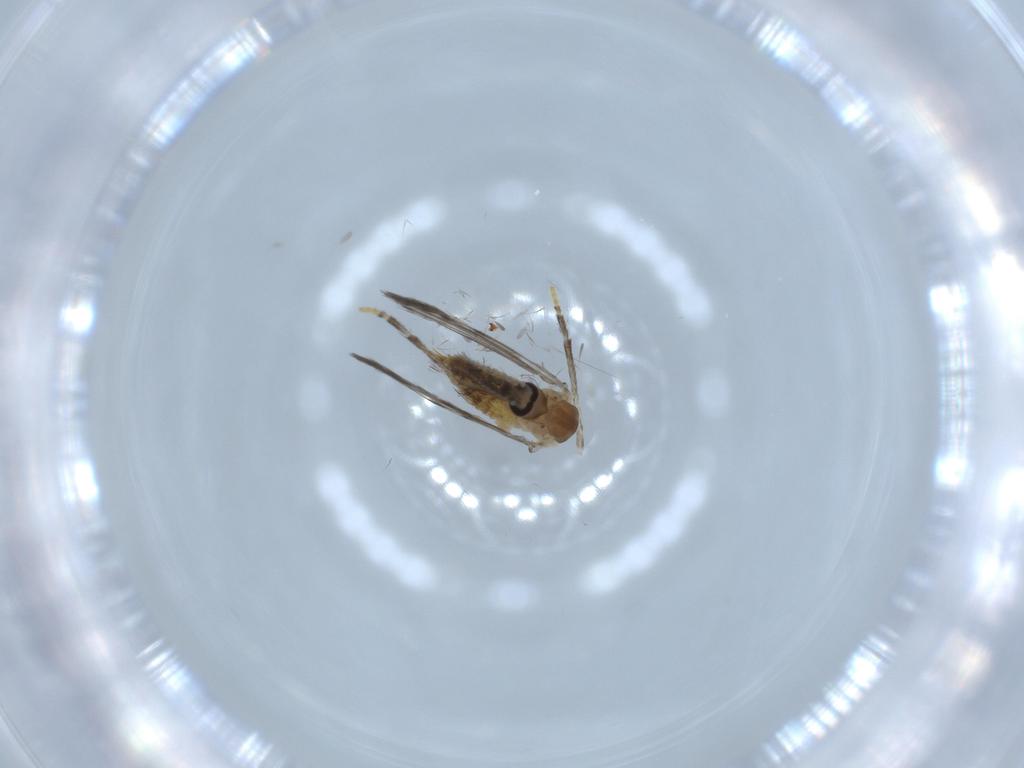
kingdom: Animalia
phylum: Arthropoda
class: Insecta
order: Diptera
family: Psychodidae
